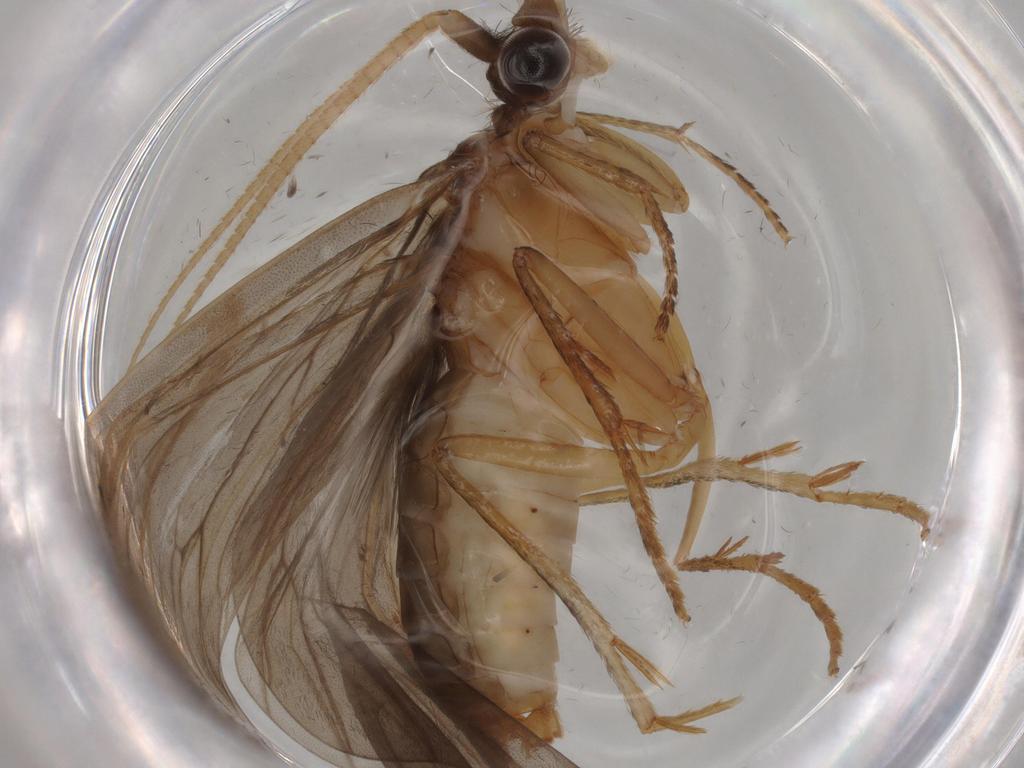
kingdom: Animalia
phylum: Arthropoda
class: Insecta
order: Trichoptera
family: Lepidostomatidae
